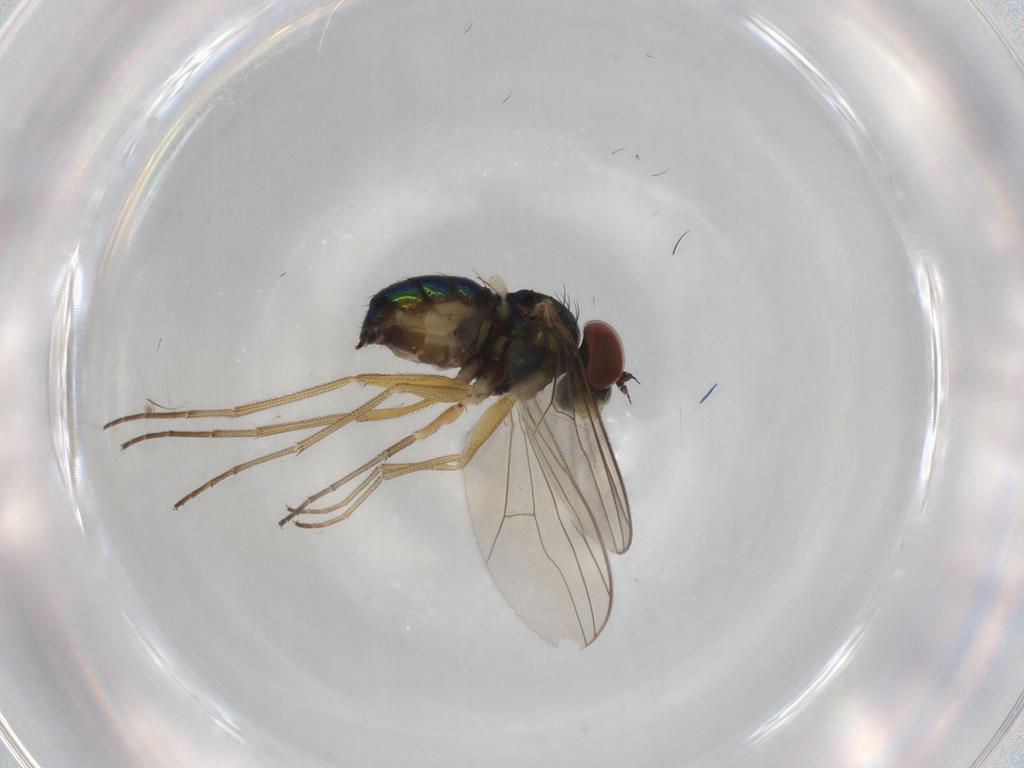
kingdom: Animalia
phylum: Arthropoda
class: Insecta
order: Diptera
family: Dolichopodidae
